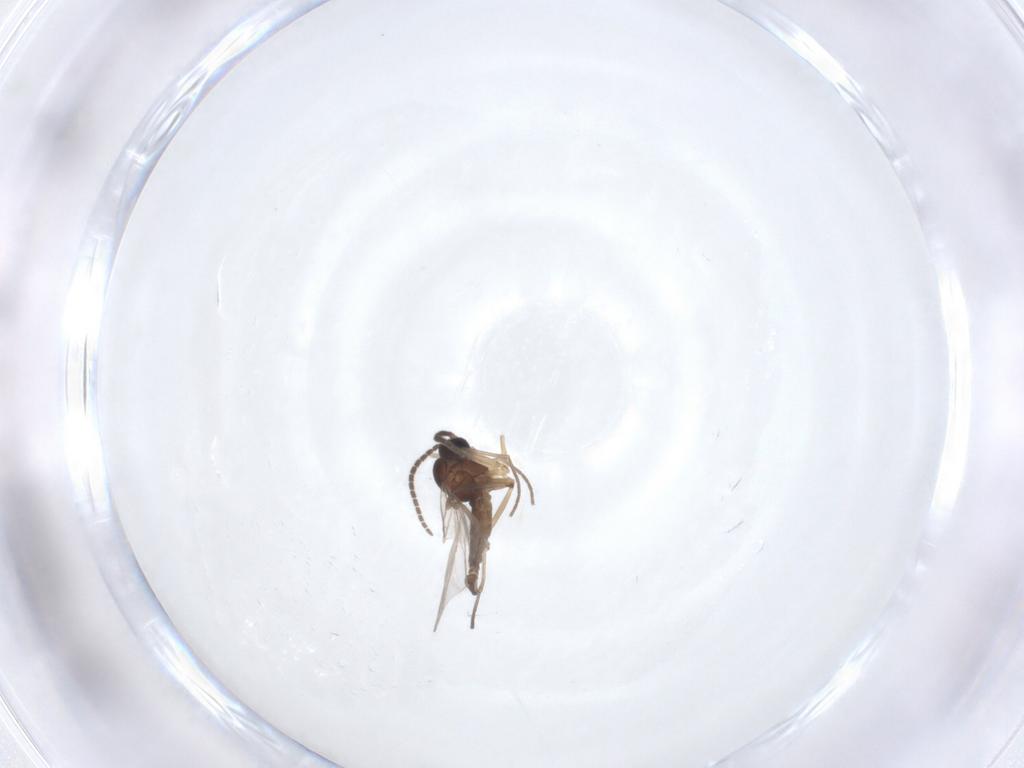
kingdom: Animalia
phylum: Arthropoda
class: Insecta
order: Diptera
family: Sciaridae
